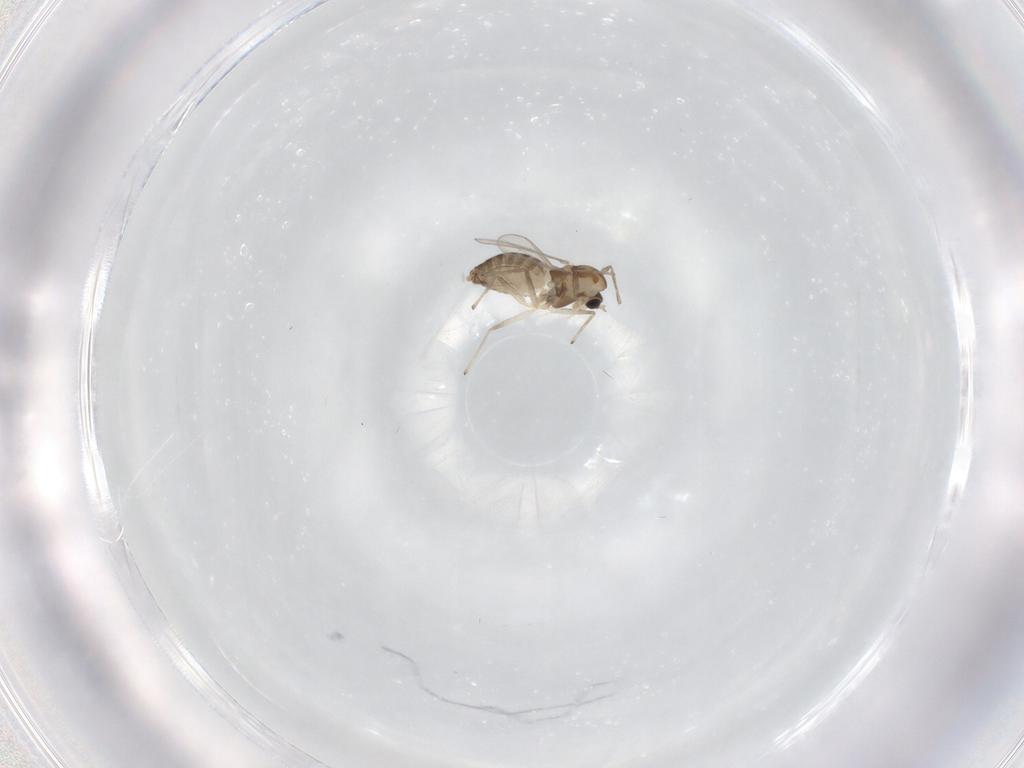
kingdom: Animalia
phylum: Arthropoda
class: Insecta
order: Diptera
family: Chironomidae
